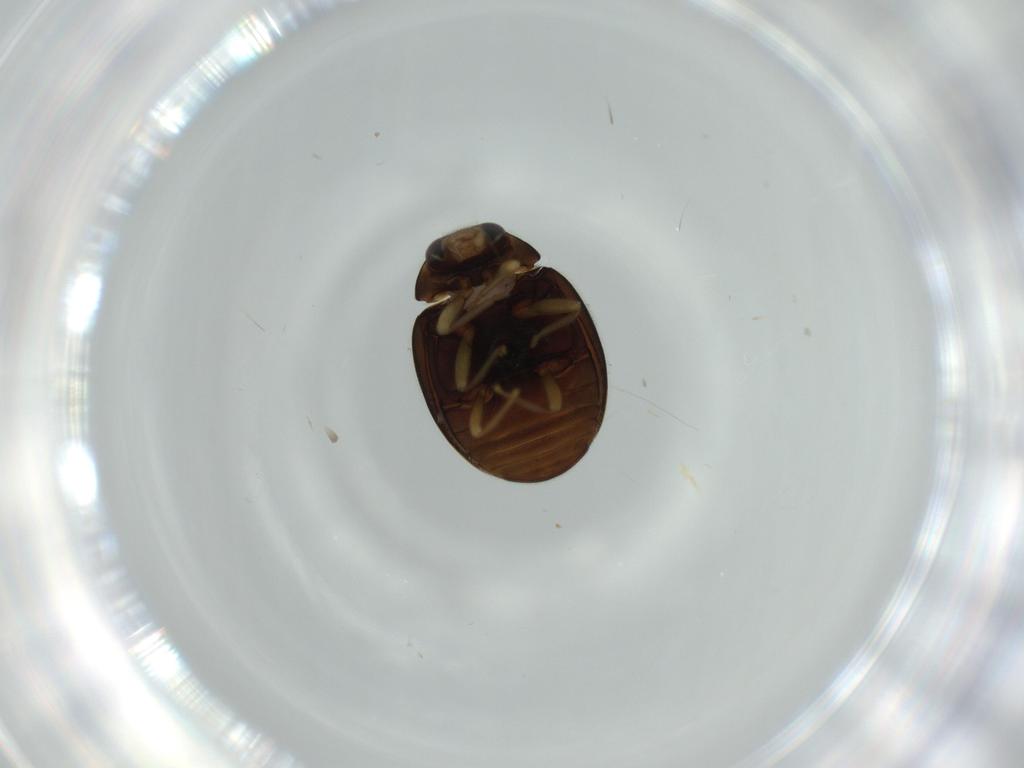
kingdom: Animalia
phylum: Arthropoda
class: Insecta
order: Coleoptera
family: Coccinellidae
